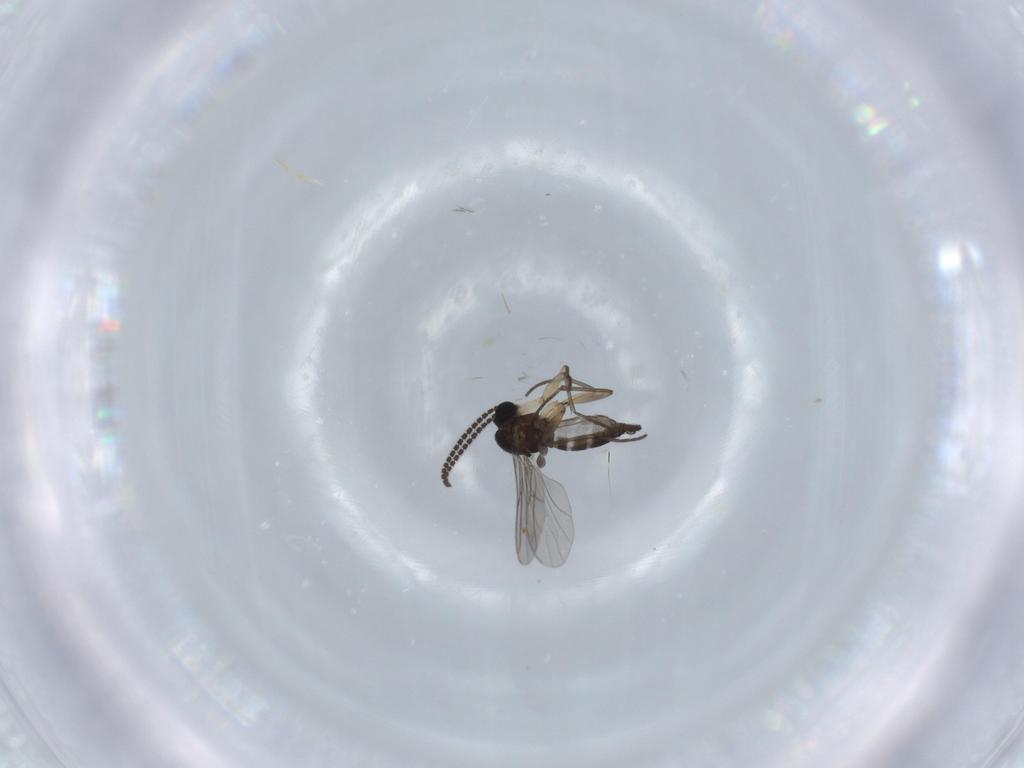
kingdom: Animalia
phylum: Arthropoda
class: Insecta
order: Diptera
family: Sciaridae
